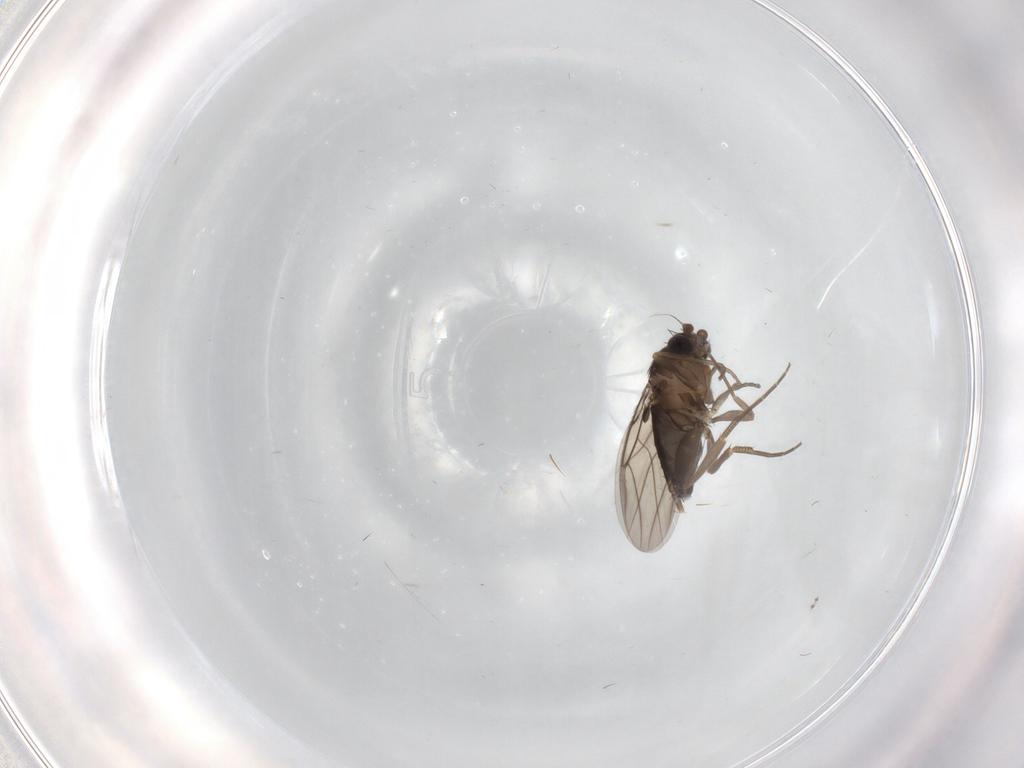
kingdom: Animalia
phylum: Arthropoda
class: Insecta
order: Diptera
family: Phoridae
